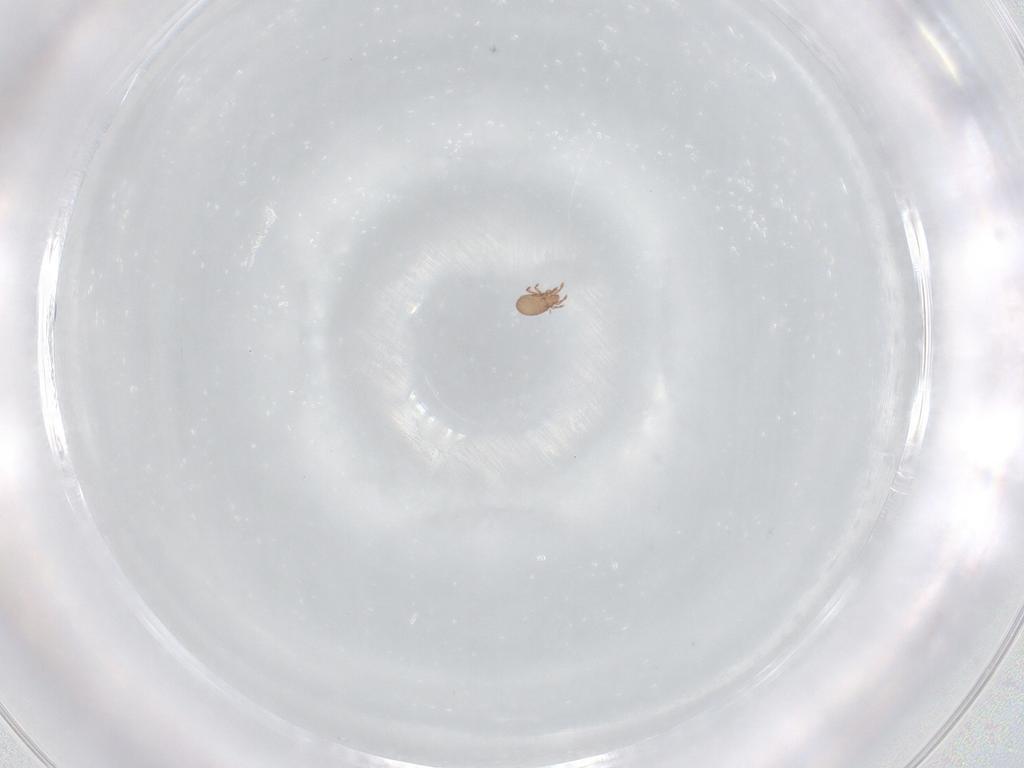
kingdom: Animalia
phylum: Arthropoda
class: Arachnida
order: Sarcoptiformes
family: Eremaeidae
